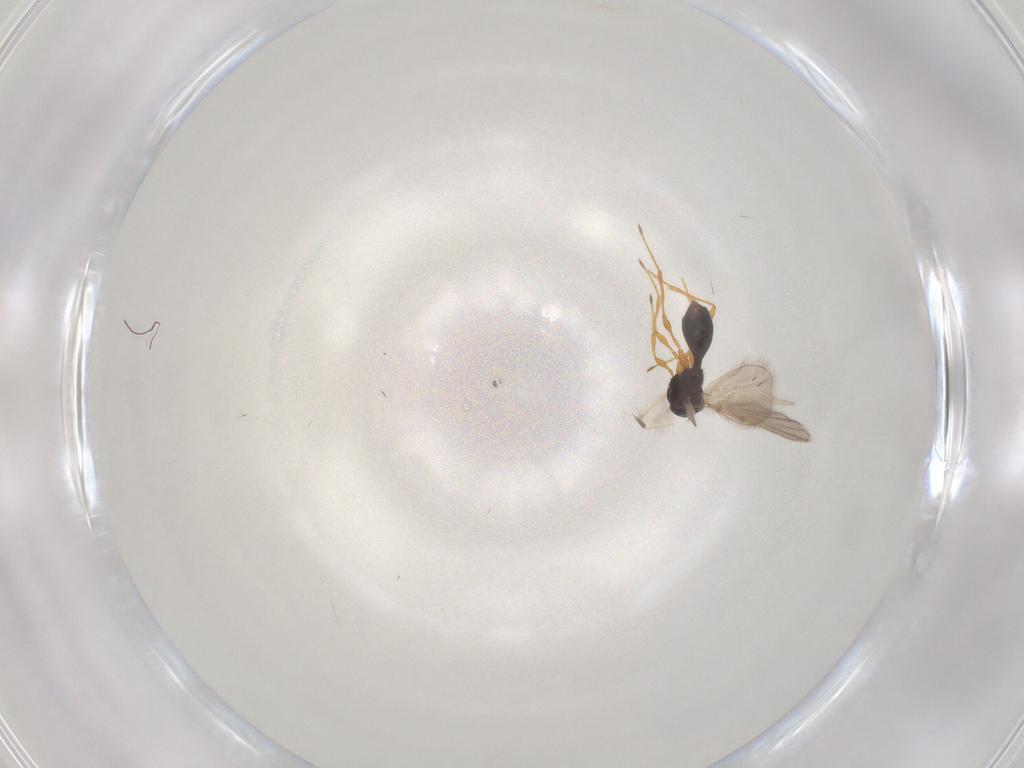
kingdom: Animalia
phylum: Arthropoda
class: Insecta
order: Hymenoptera
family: Diapriidae
